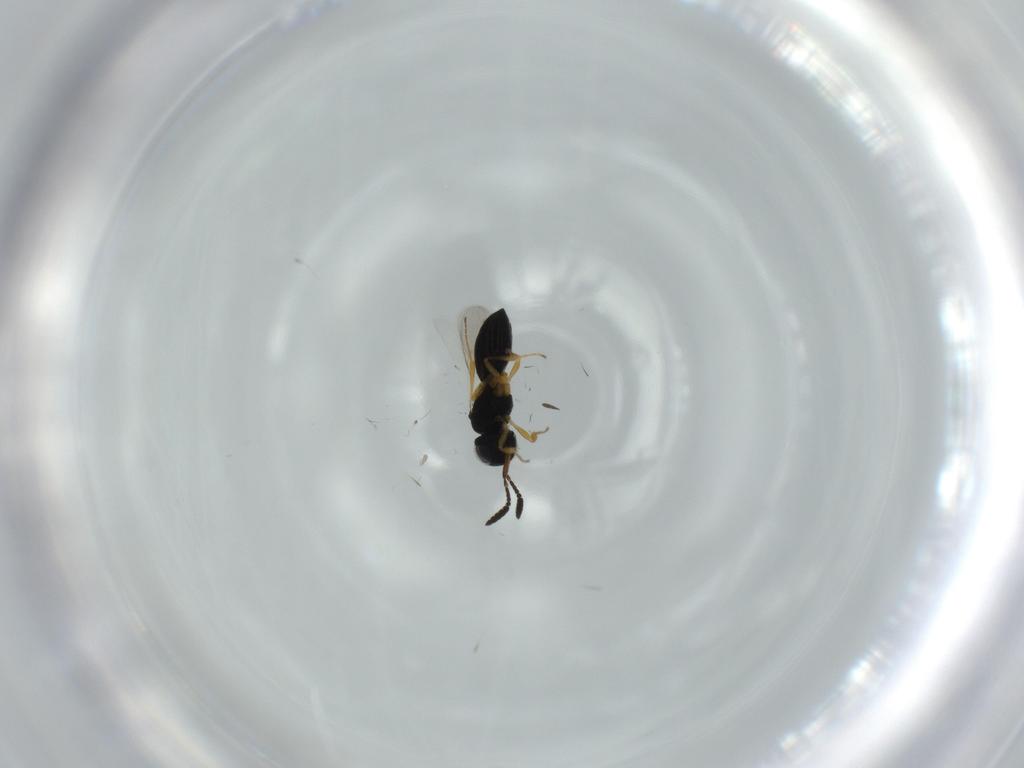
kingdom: Animalia
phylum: Arthropoda
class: Insecta
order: Hymenoptera
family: Scelionidae
